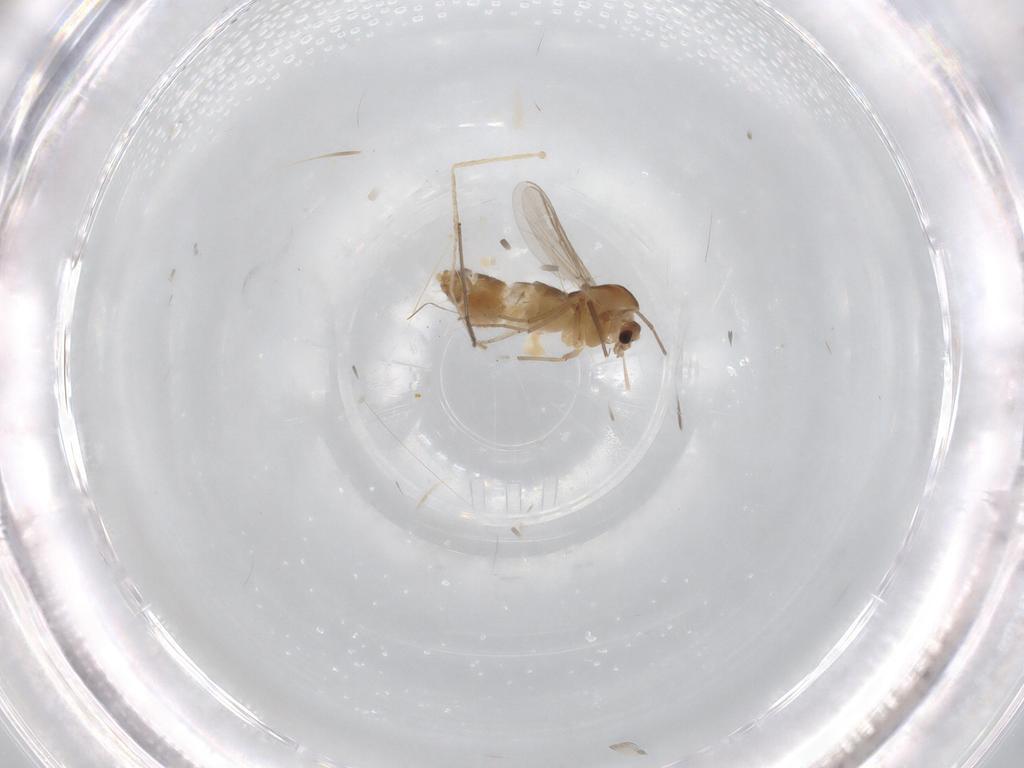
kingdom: Animalia
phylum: Arthropoda
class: Insecta
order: Diptera
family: Chironomidae
